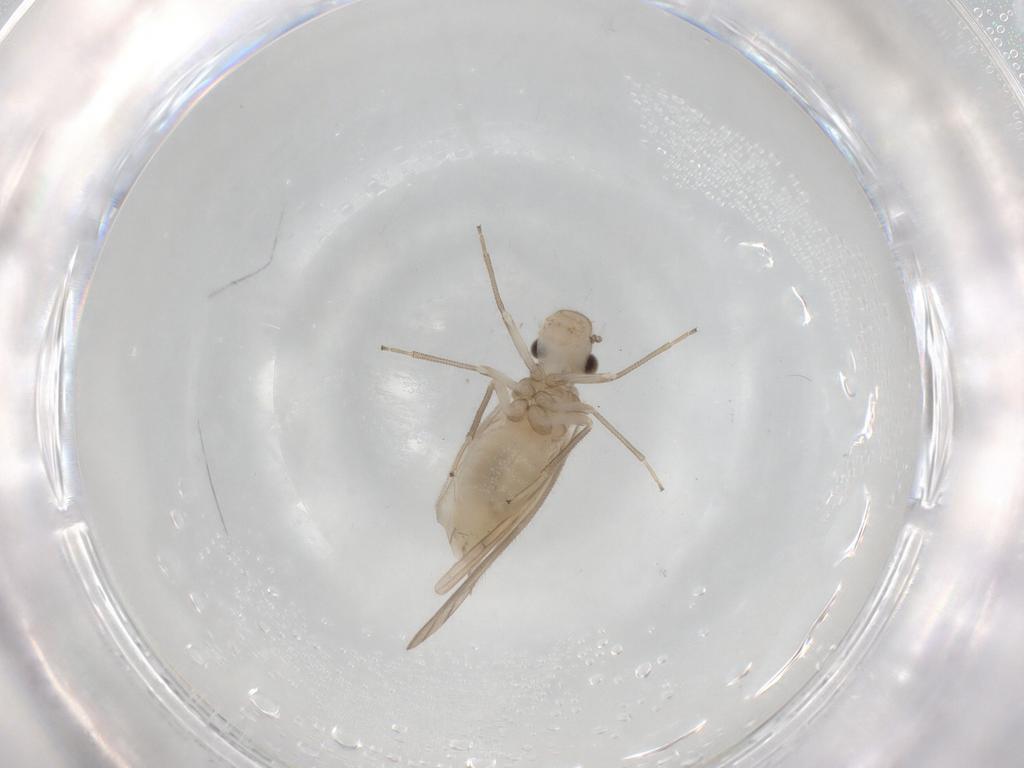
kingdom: Animalia
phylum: Arthropoda
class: Insecta
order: Psocodea
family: Caeciliusidae
